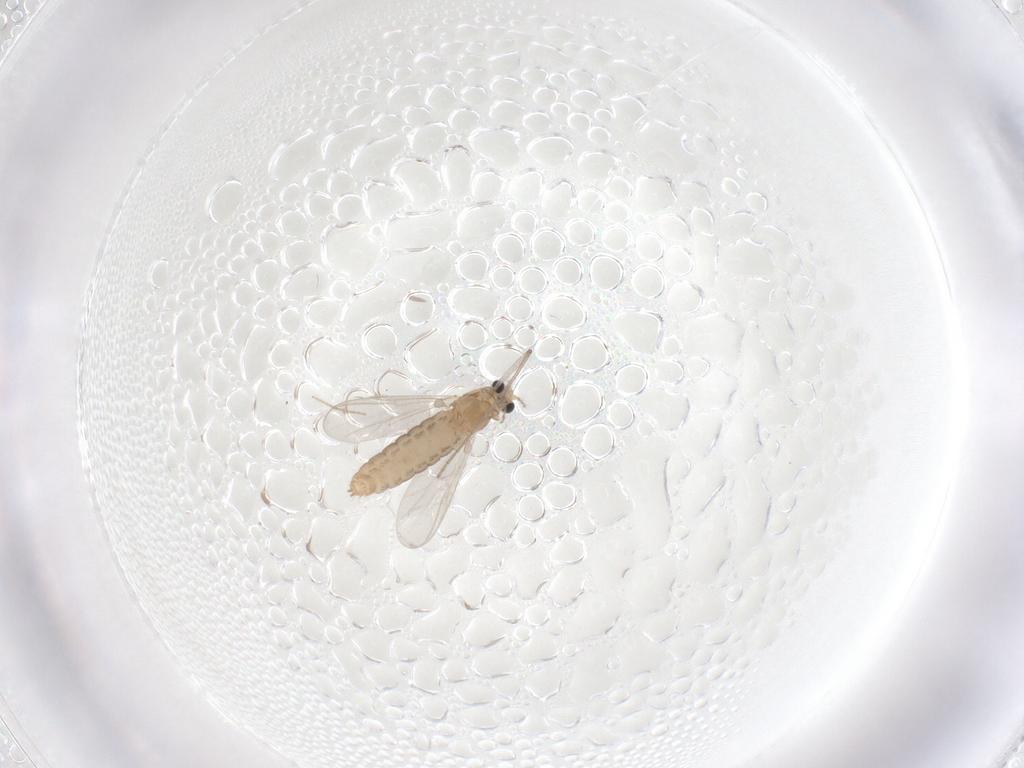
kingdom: Animalia
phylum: Arthropoda
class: Insecta
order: Diptera
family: Chironomidae
